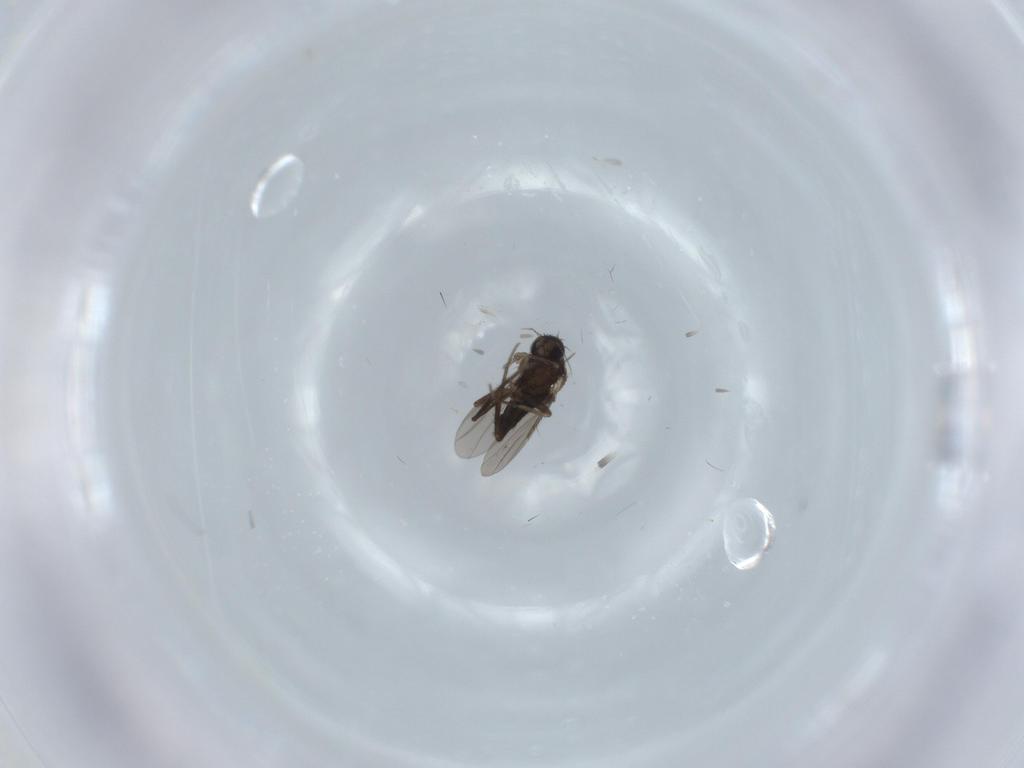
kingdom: Animalia
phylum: Arthropoda
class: Insecta
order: Diptera
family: Phoridae
